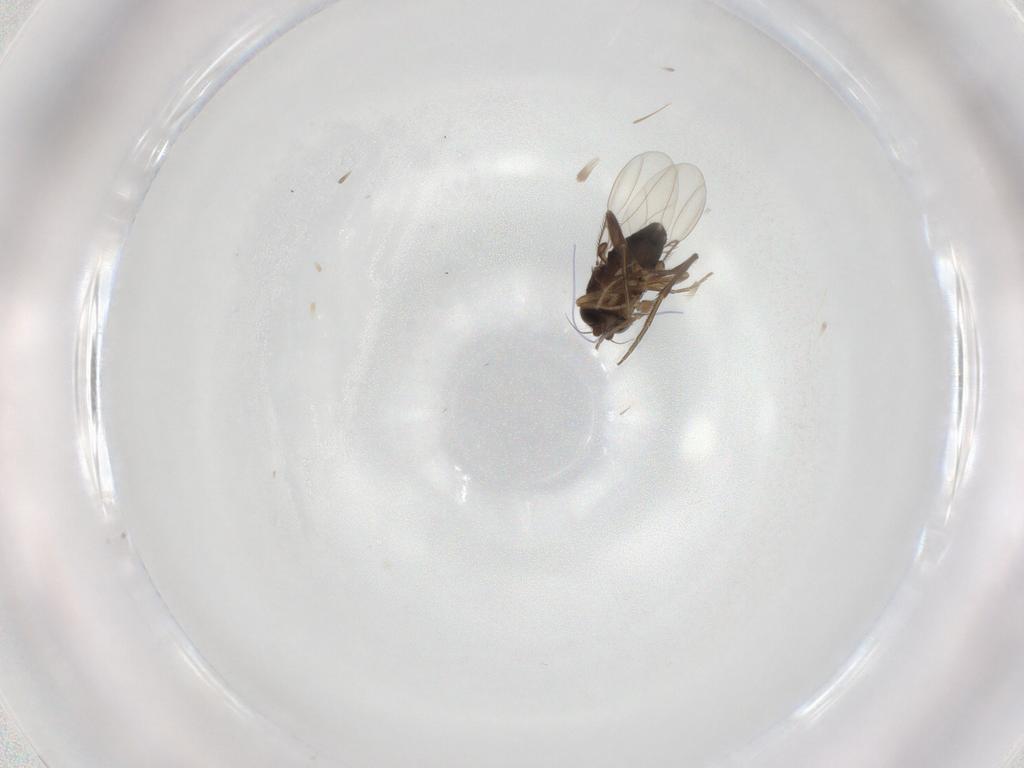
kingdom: Animalia
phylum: Arthropoda
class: Insecta
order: Diptera
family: Phoridae
